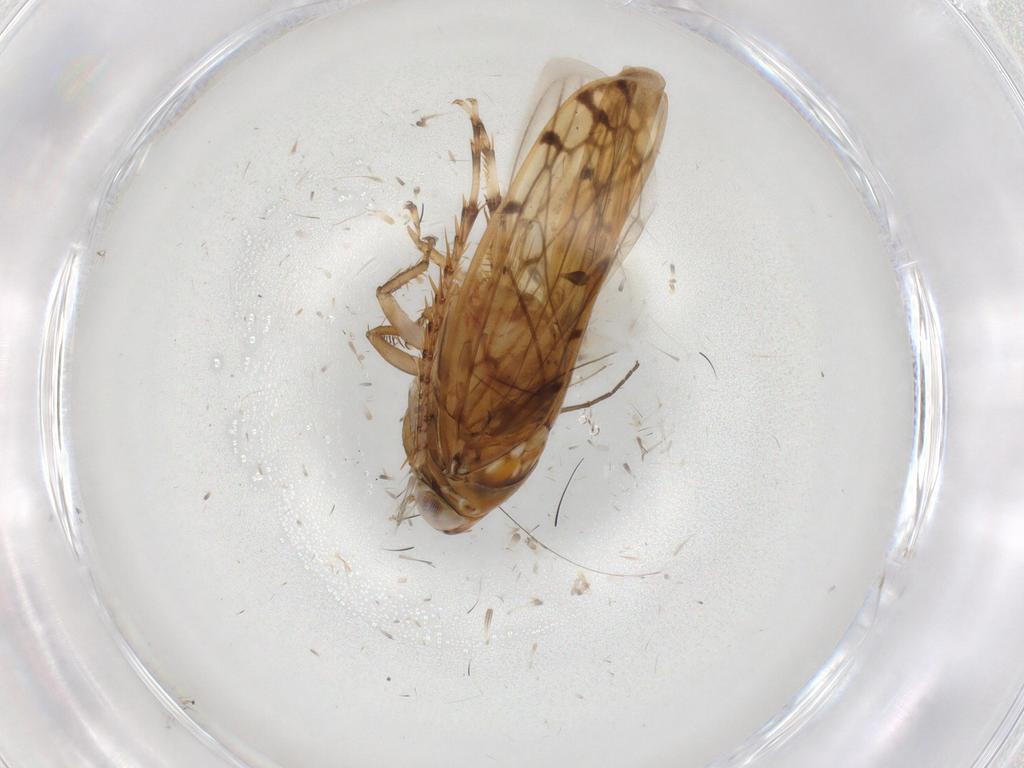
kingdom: Animalia
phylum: Arthropoda
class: Insecta
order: Hemiptera
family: Cicadellidae
